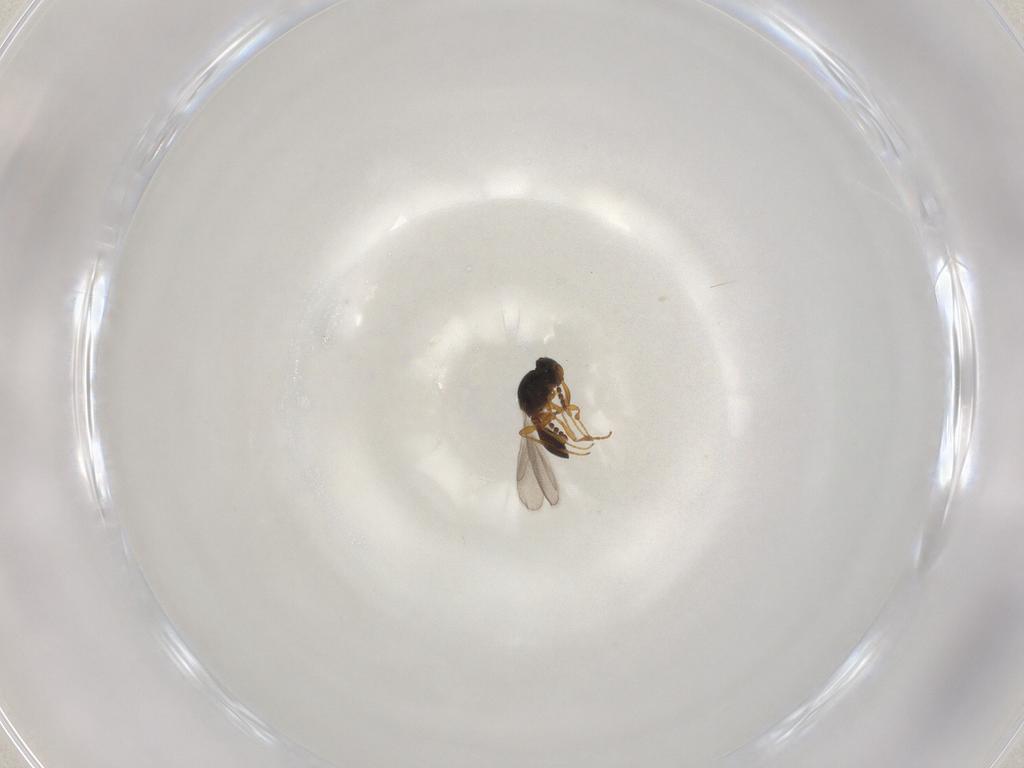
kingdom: Animalia
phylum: Arthropoda
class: Insecta
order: Hymenoptera
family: Platygastridae
